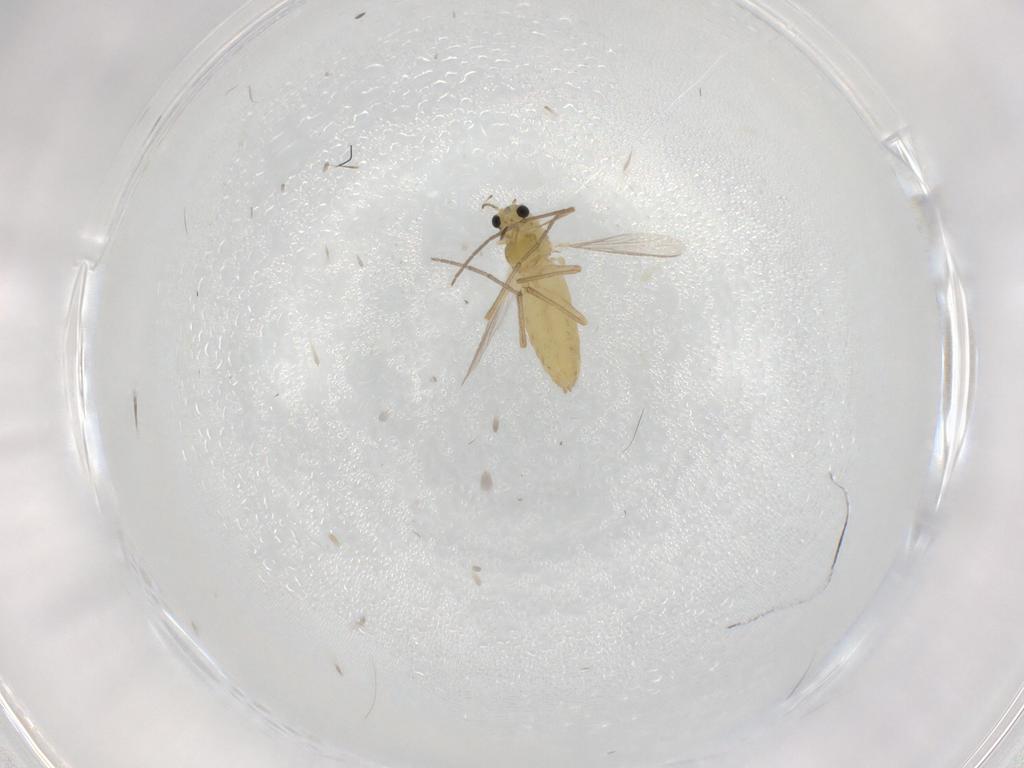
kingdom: Animalia
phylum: Arthropoda
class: Insecta
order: Diptera
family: Chironomidae
